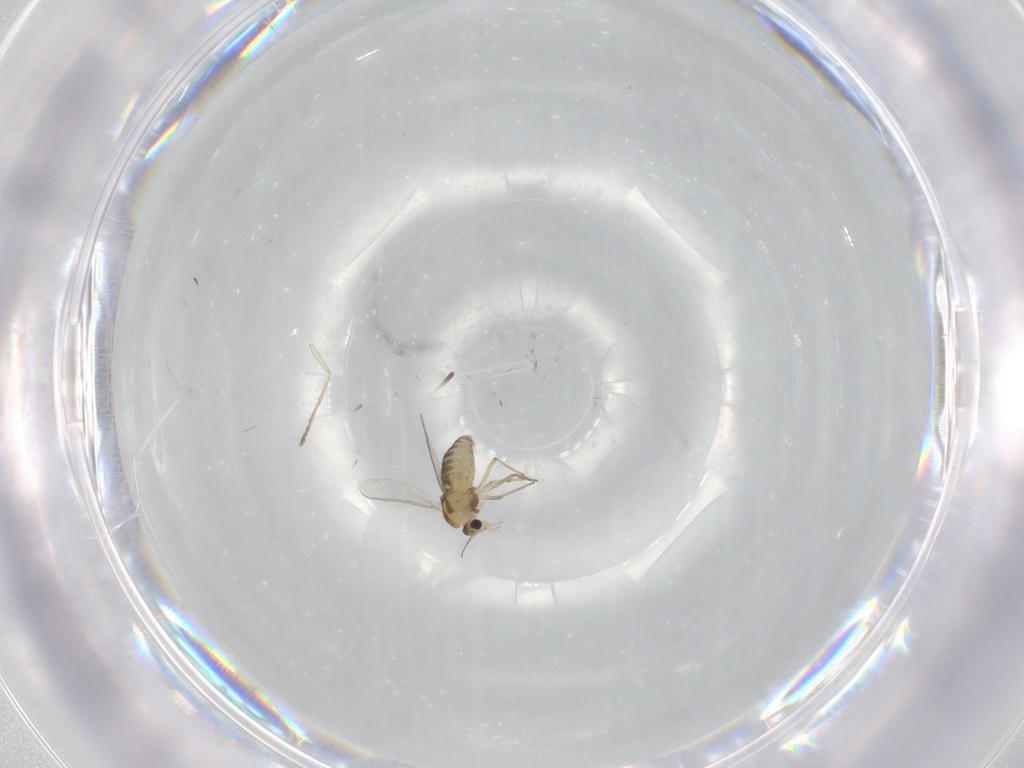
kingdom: Animalia
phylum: Arthropoda
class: Insecta
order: Diptera
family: Chironomidae
